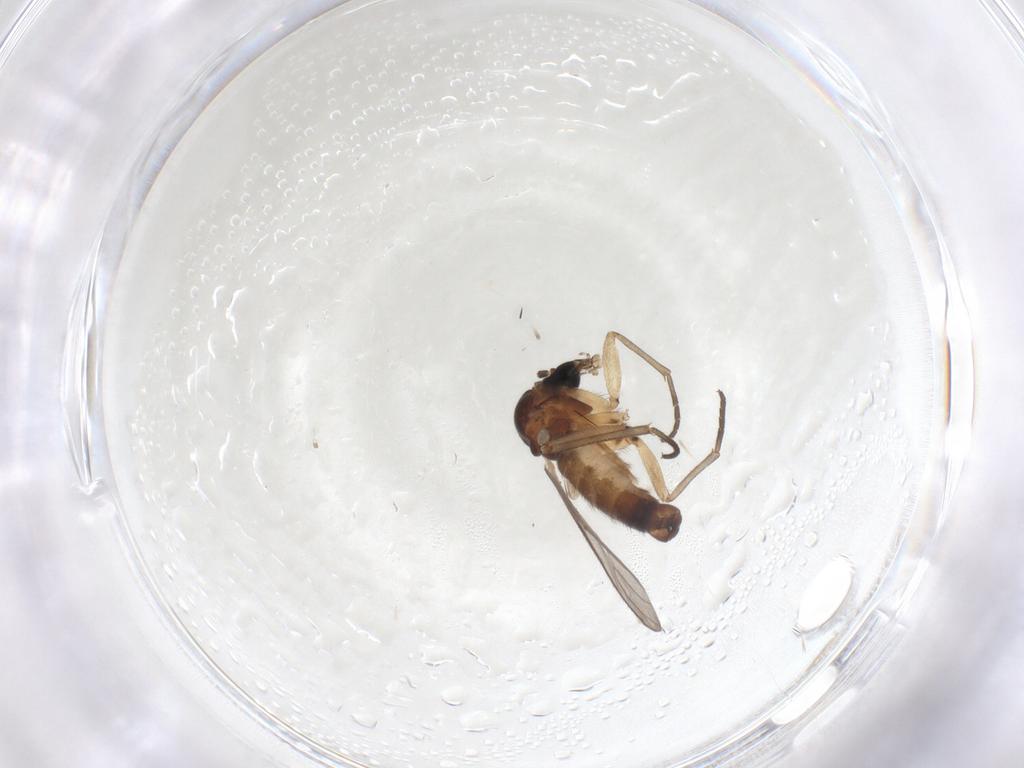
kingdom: Animalia
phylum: Arthropoda
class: Insecta
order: Diptera
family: Sciaridae
